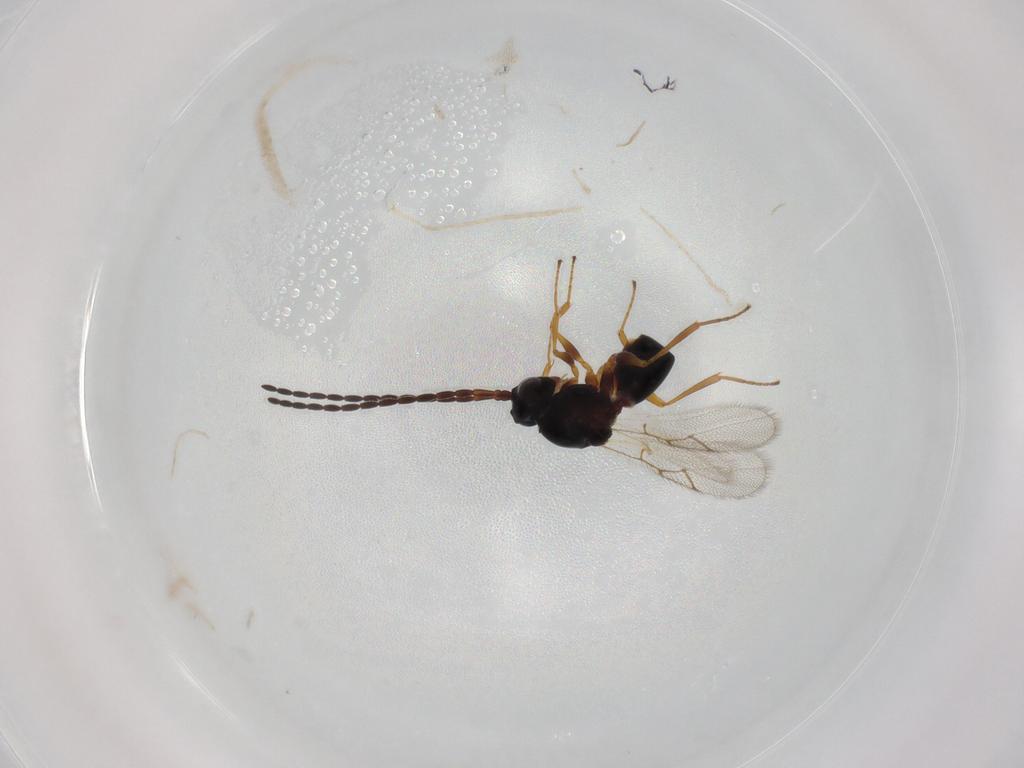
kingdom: Animalia
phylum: Arthropoda
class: Insecta
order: Hymenoptera
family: Figitidae
